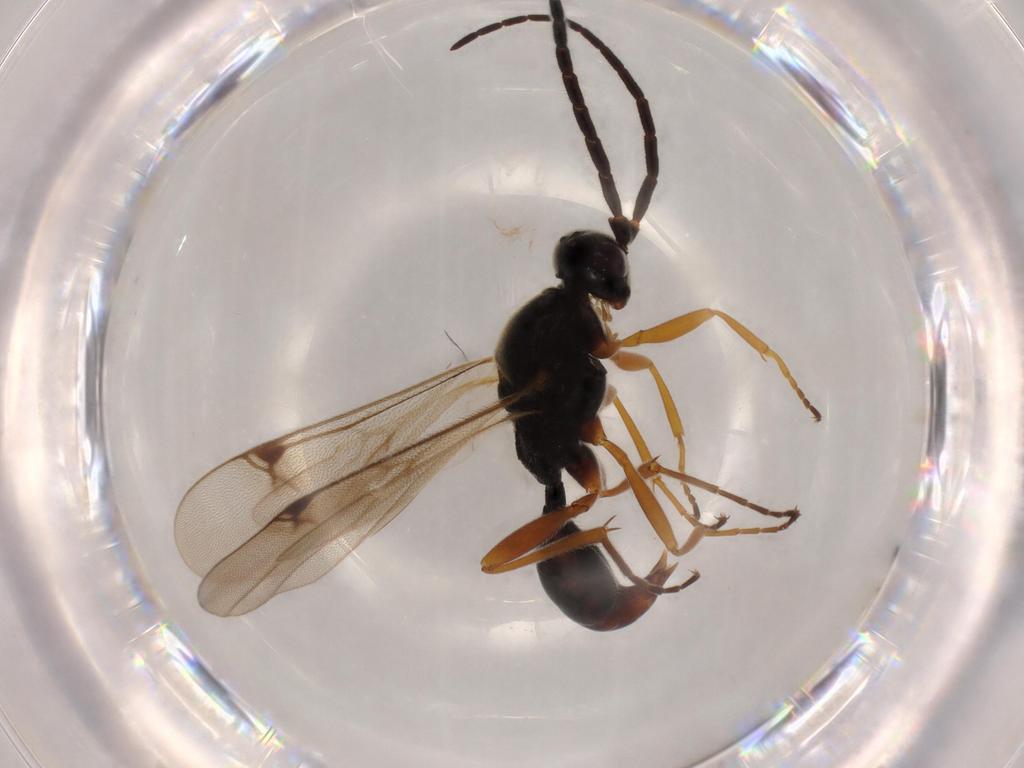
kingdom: Animalia
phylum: Arthropoda
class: Insecta
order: Hymenoptera
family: Proctotrupidae
